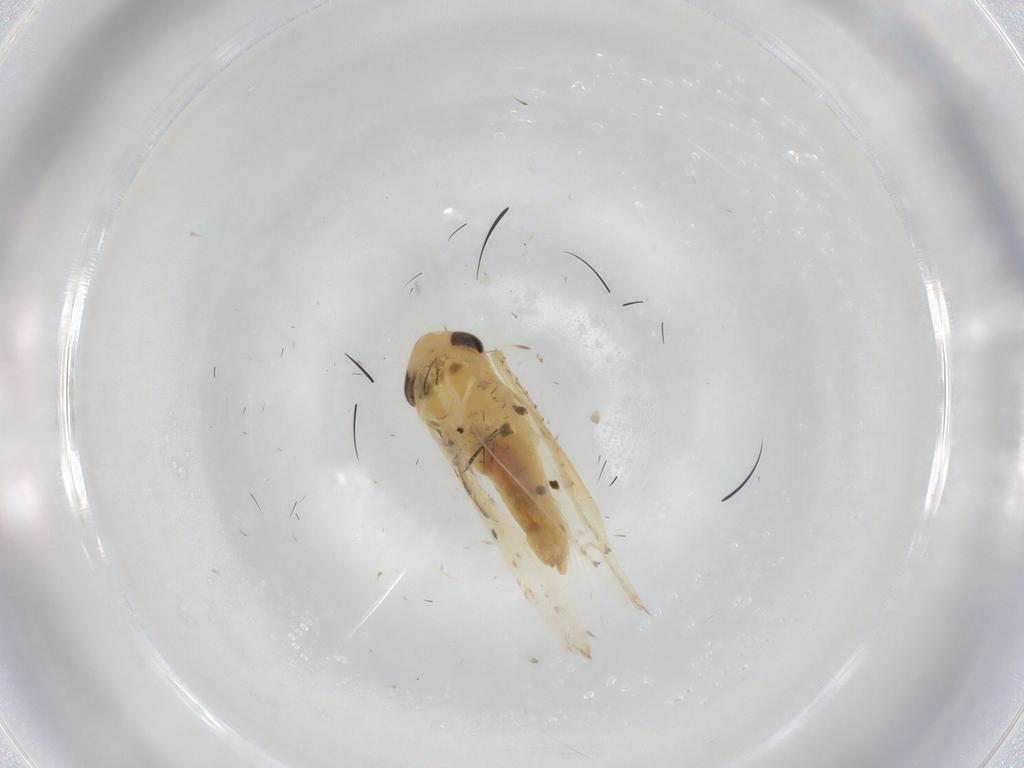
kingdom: Animalia
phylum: Arthropoda
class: Insecta
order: Hemiptera
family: Cicadellidae
